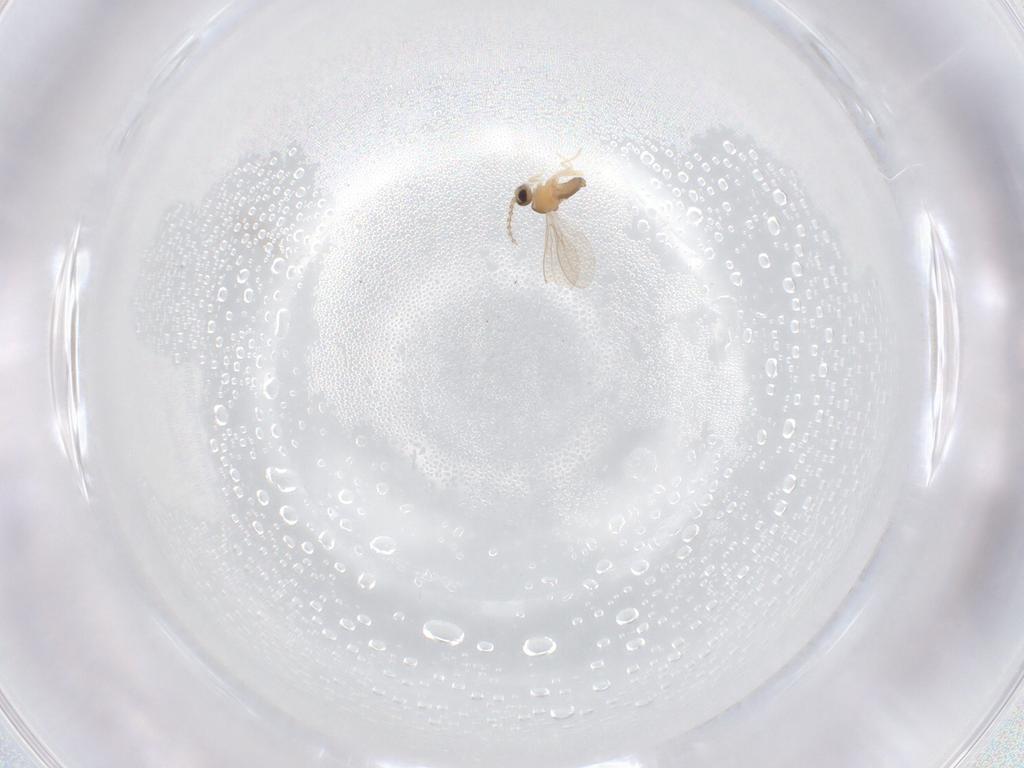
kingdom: Animalia
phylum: Arthropoda
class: Insecta
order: Diptera
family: Cecidomyiidae
